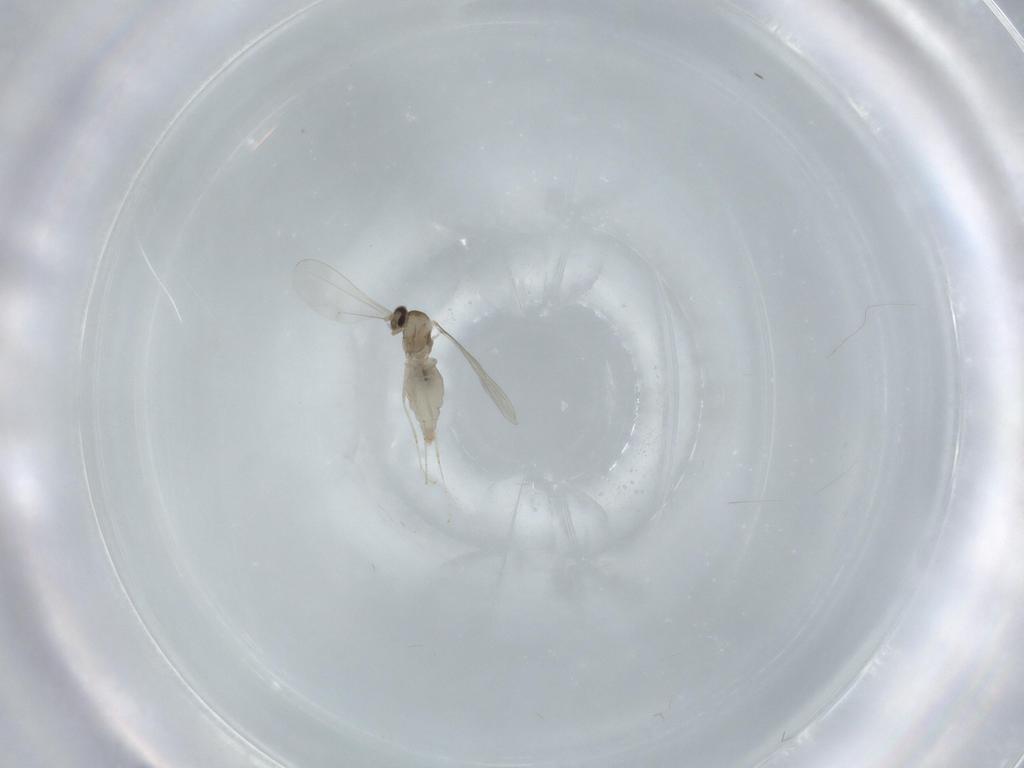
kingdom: Animalia
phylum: Arthropoda
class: Insecta
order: Diptera
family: Cecidomyiidae
